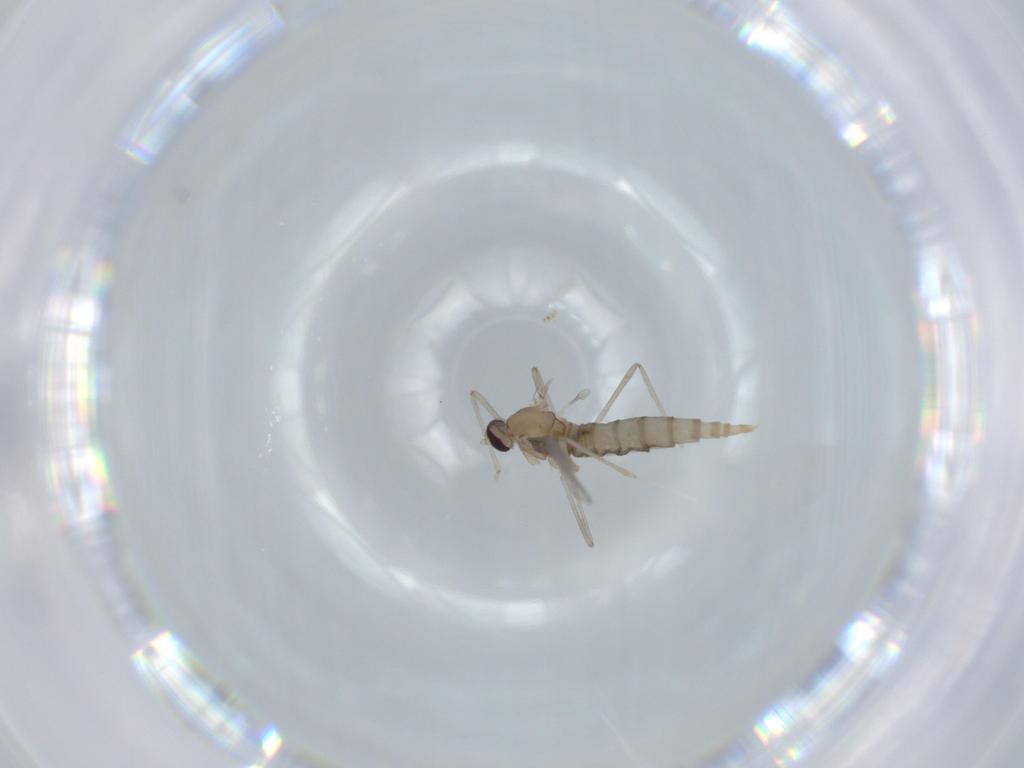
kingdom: Animalia
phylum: Arthropoda
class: Insecta
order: Diptera
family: Cecidomyiidae
